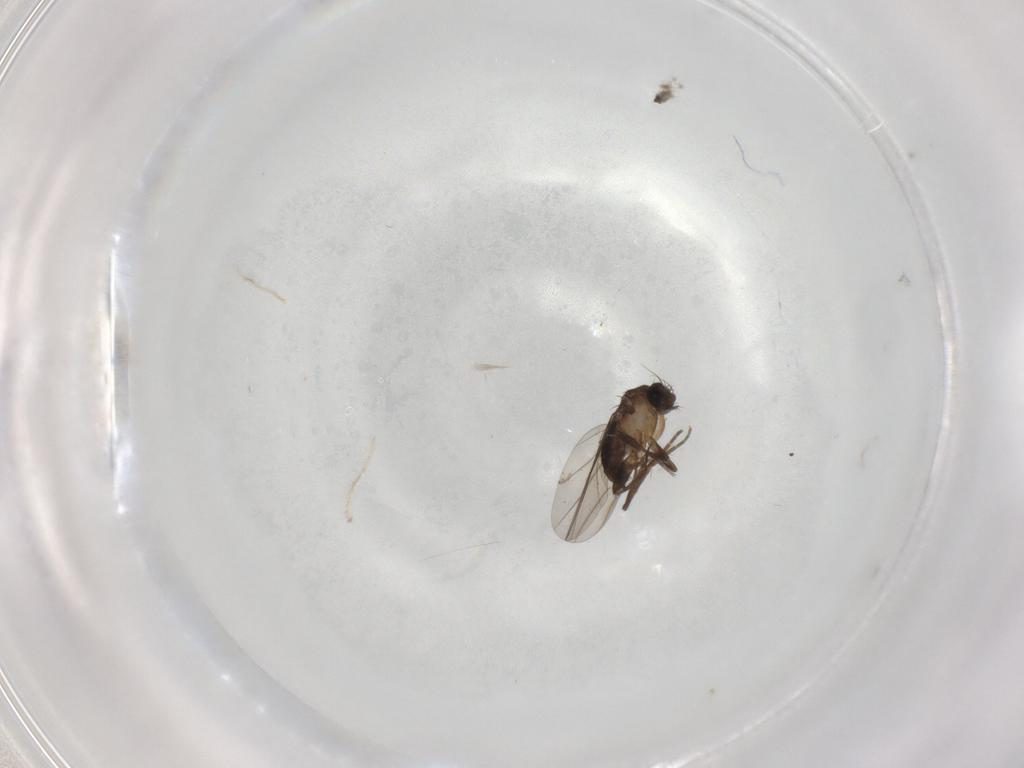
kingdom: Animalia
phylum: Arthropoda
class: Insecta
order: Diptera
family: Phoridae
